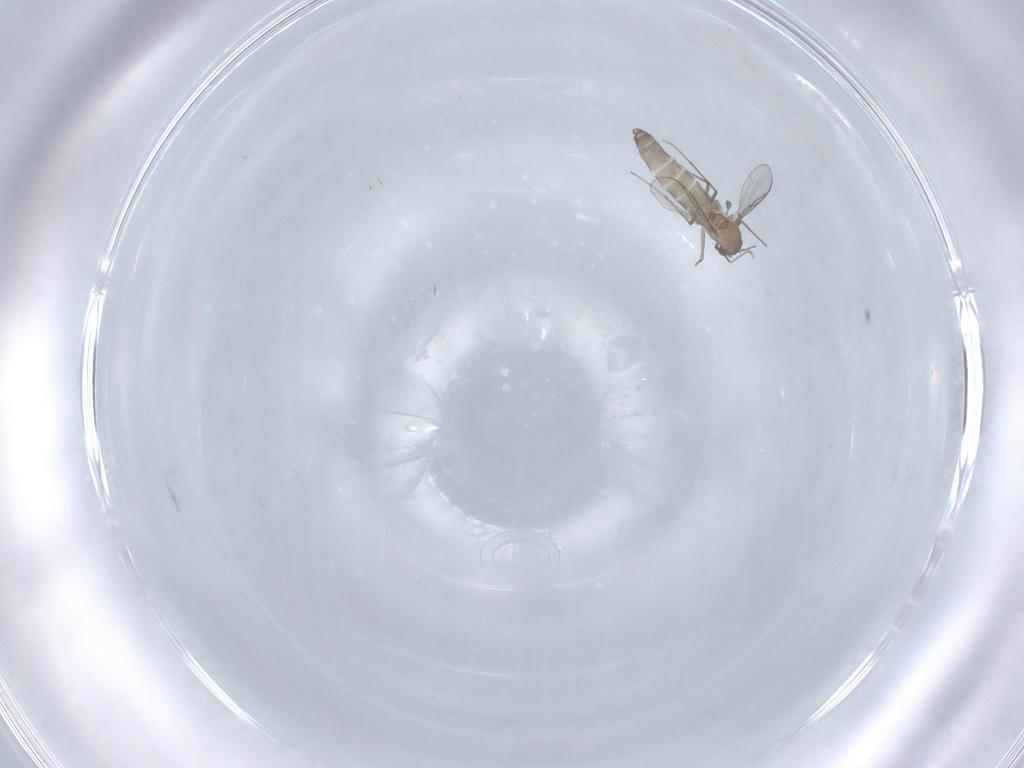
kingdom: Animalia
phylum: Arthropoda
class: Insecta
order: Diptera
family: Chironomidae
